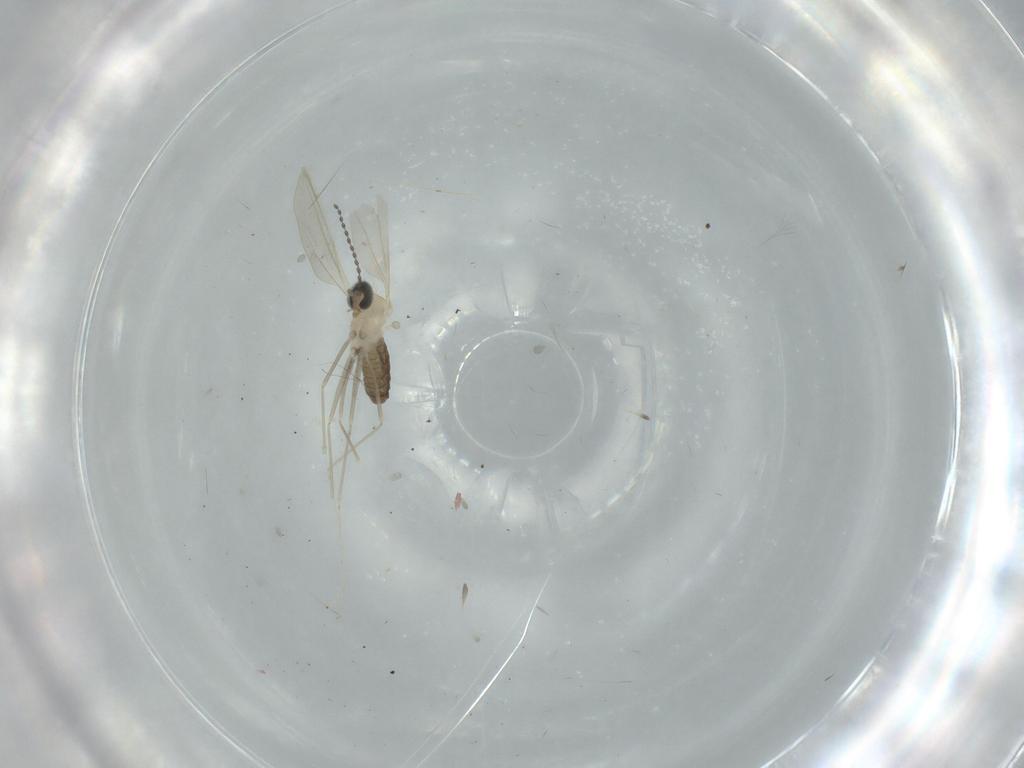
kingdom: Animalia
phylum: Arthropoda
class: Insecta
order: Diptera
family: Cecidomyiidae
